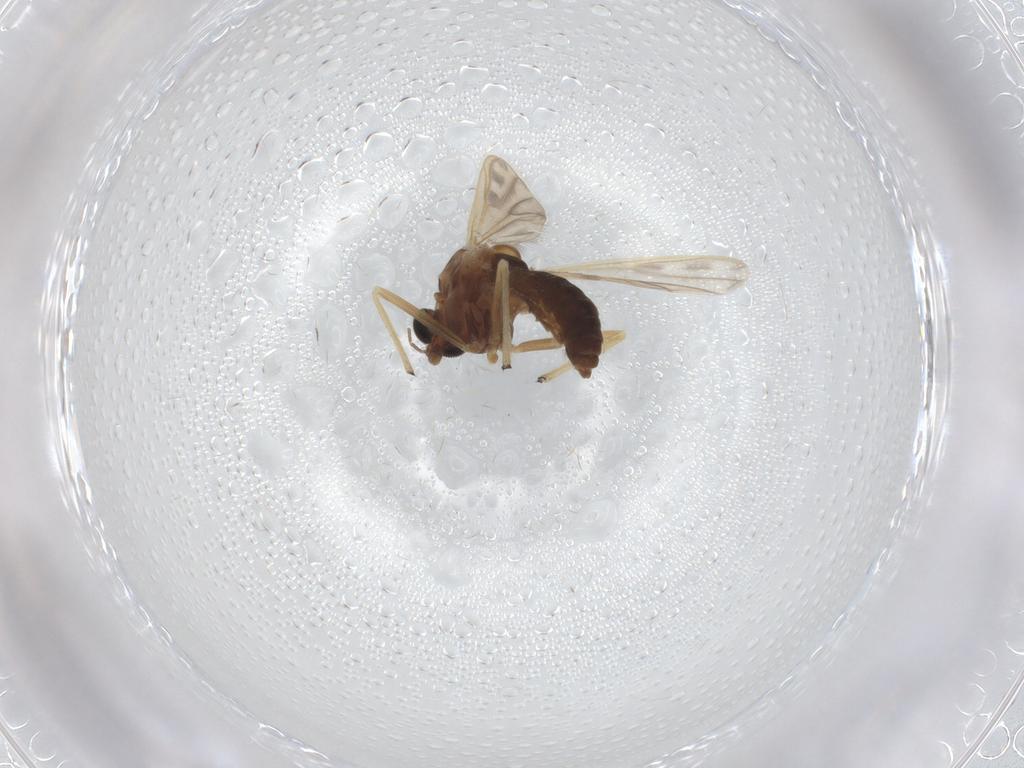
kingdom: Animalia
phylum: Arthropoda
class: Insecta
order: Diptera
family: Chironomidae
